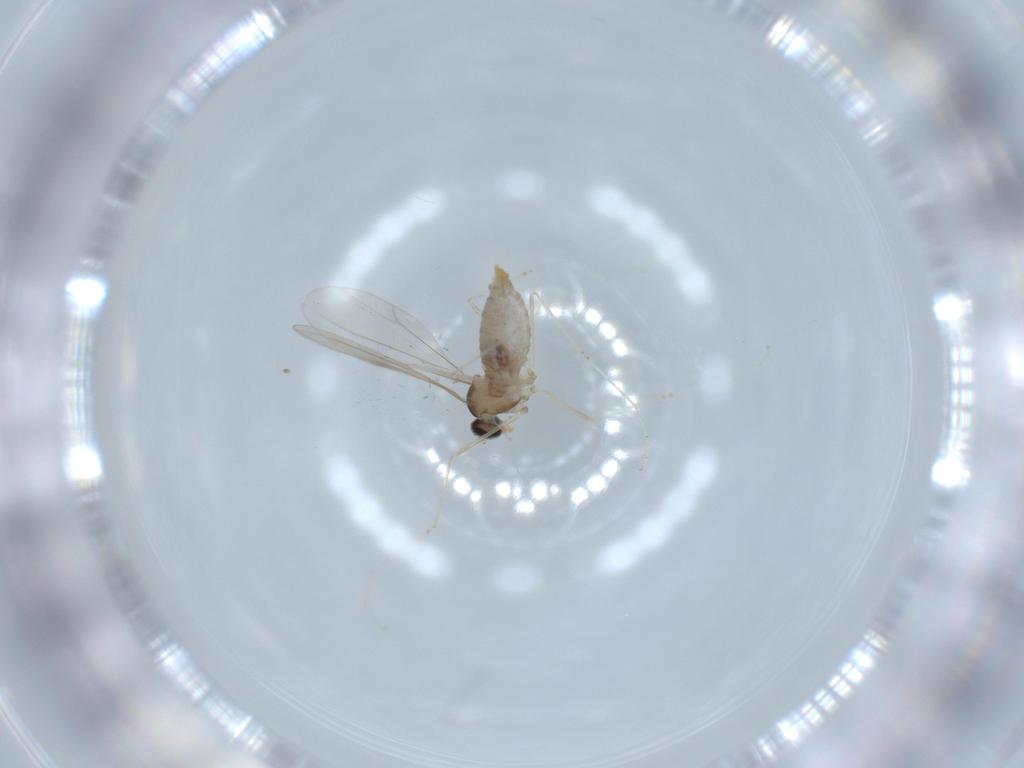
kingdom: Animalia
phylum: Arthropoda
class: Insecta
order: Diptera
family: Cecidomyiidae
